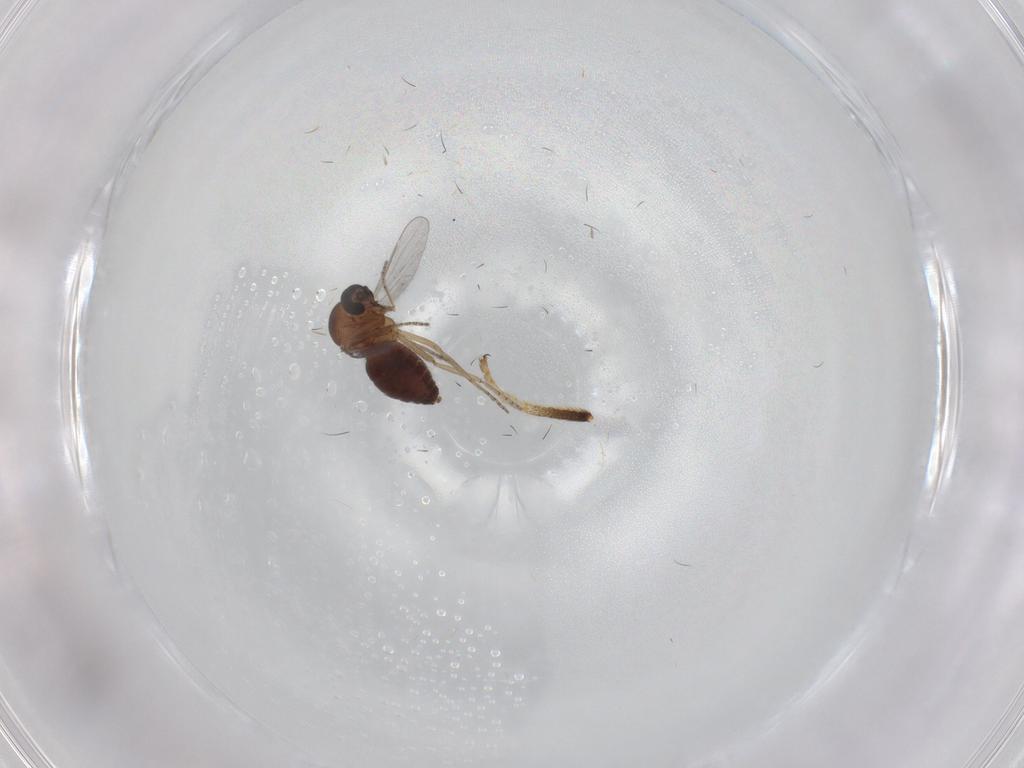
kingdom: Animalia
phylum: Arthropoda
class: Insecta
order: Diptera
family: Micropezidae
